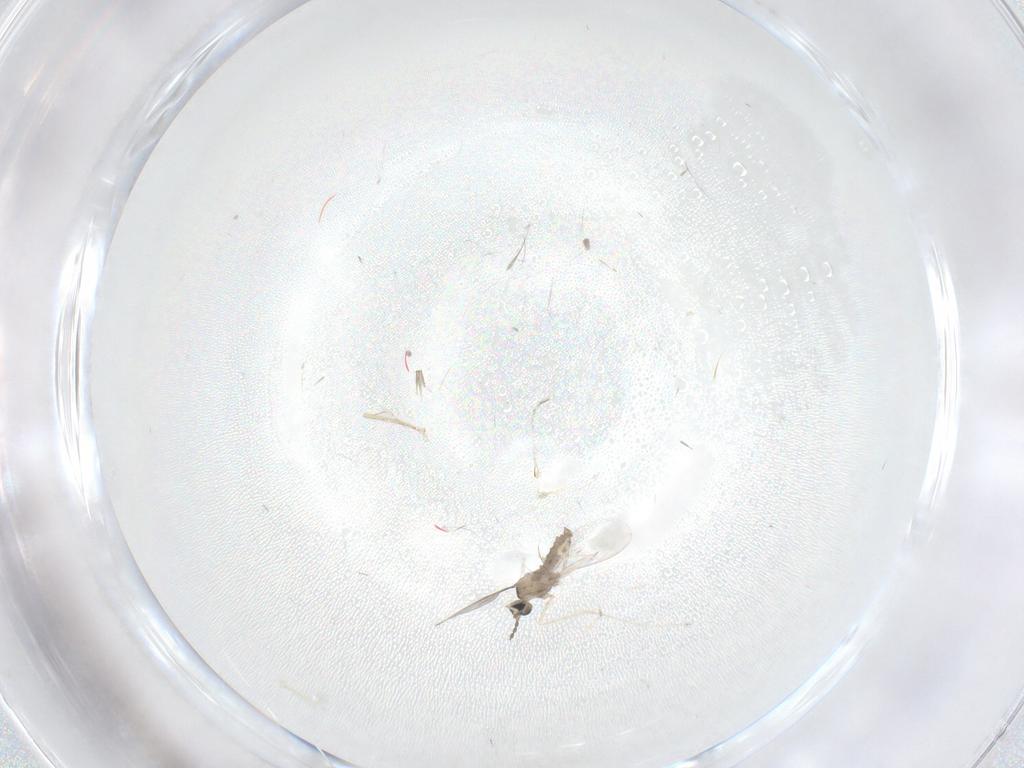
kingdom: Animalia
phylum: Arthropoda
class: Insecta
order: Diptera
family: Cecidomyiidae
